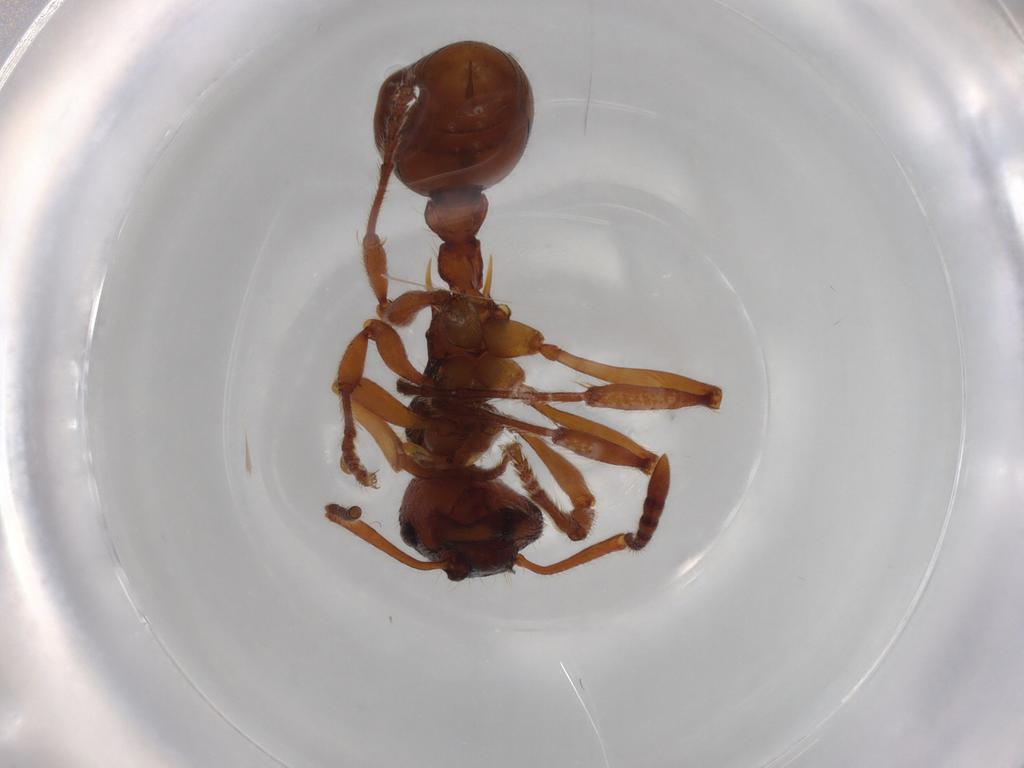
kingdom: Animalia
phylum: Arthropoda
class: Insecta
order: Hymenoptera
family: Formicidae
